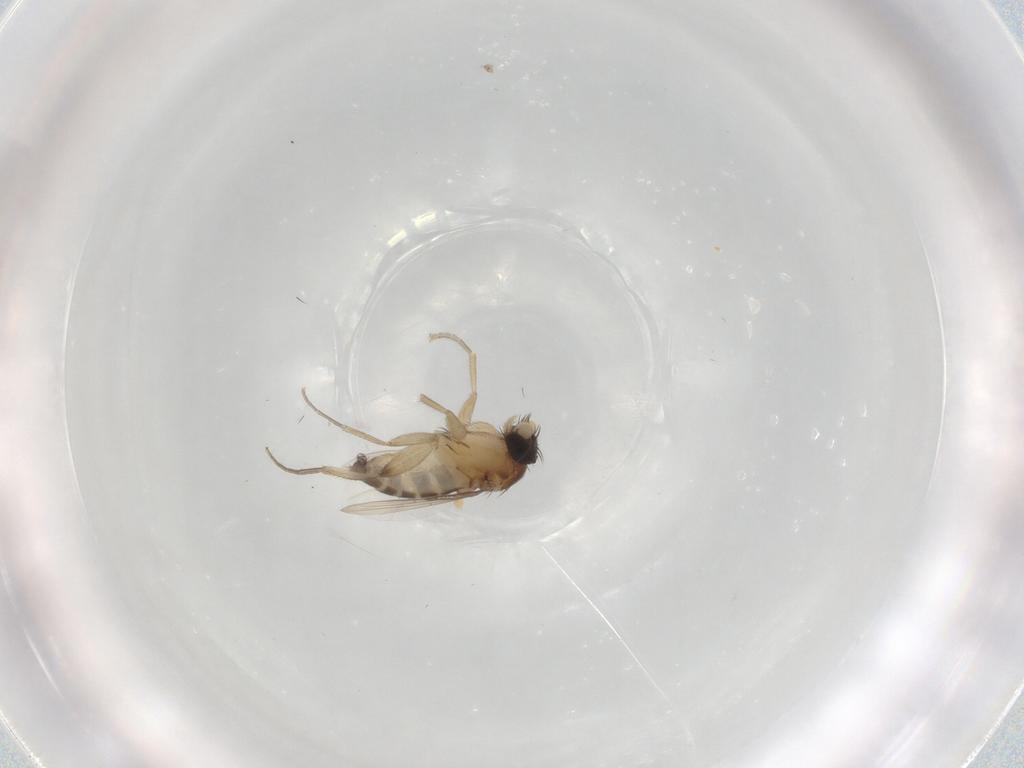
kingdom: Animalia
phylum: Arthropoda
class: Insecta
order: Diptera
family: Phoridae
